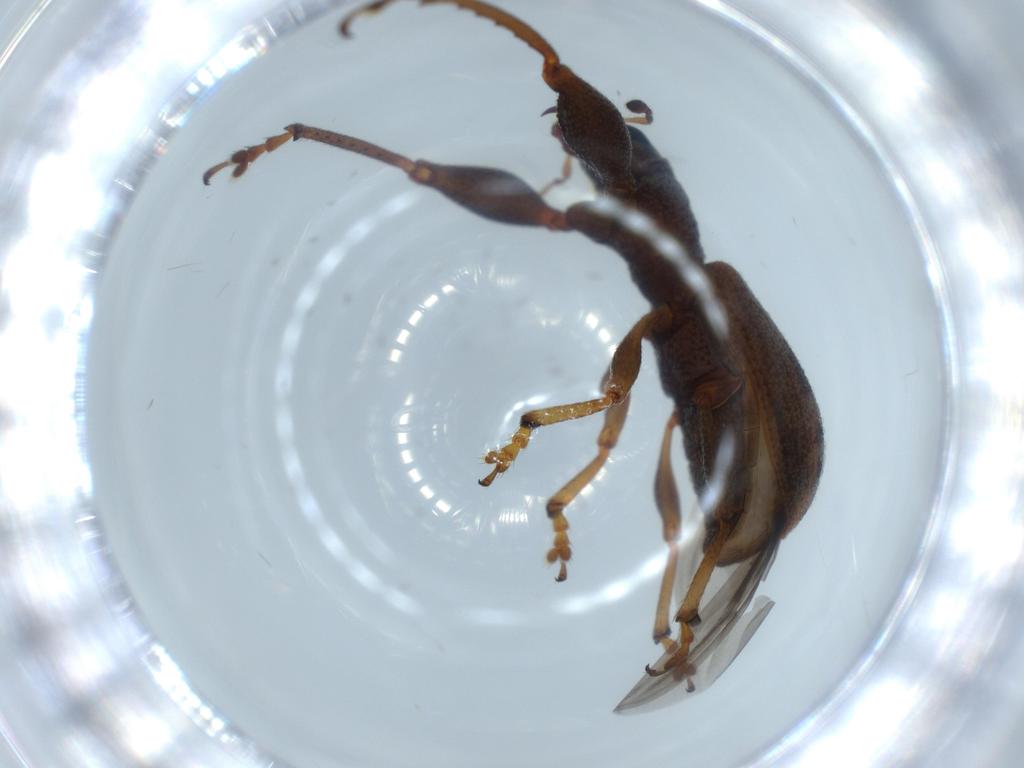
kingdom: Animalia
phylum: Arthropoda
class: Insecta
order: Coleoptera
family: Curculionidae
